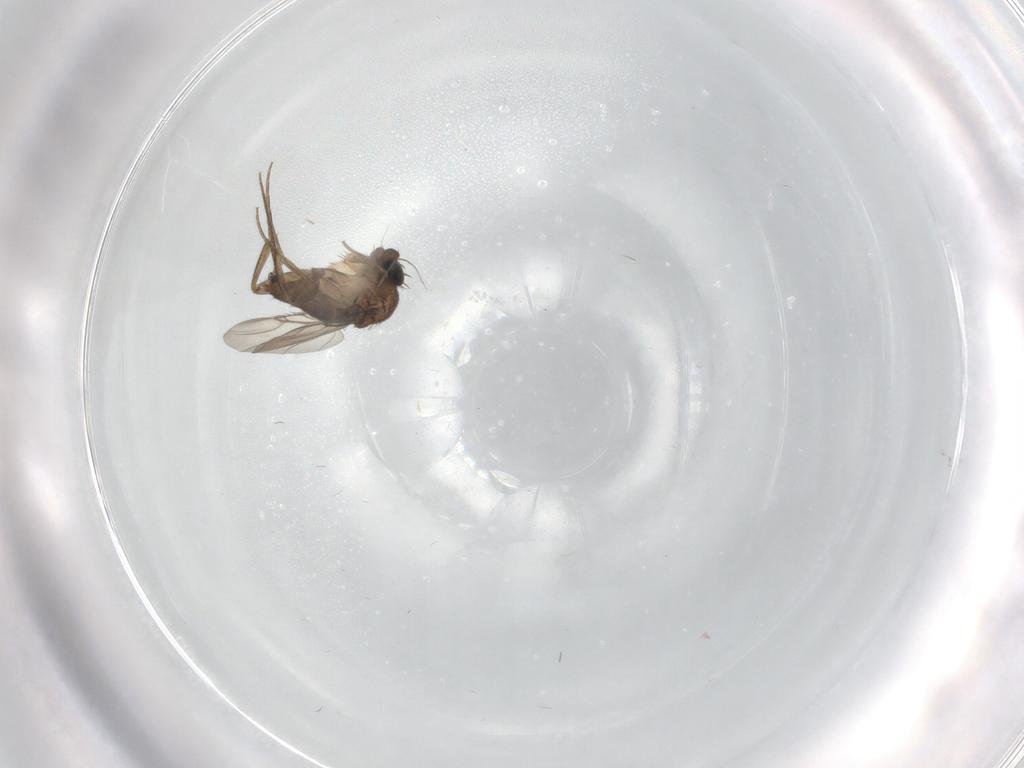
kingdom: Animalia
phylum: Arthropoda
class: Insecta
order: Diptera
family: Phoridae
